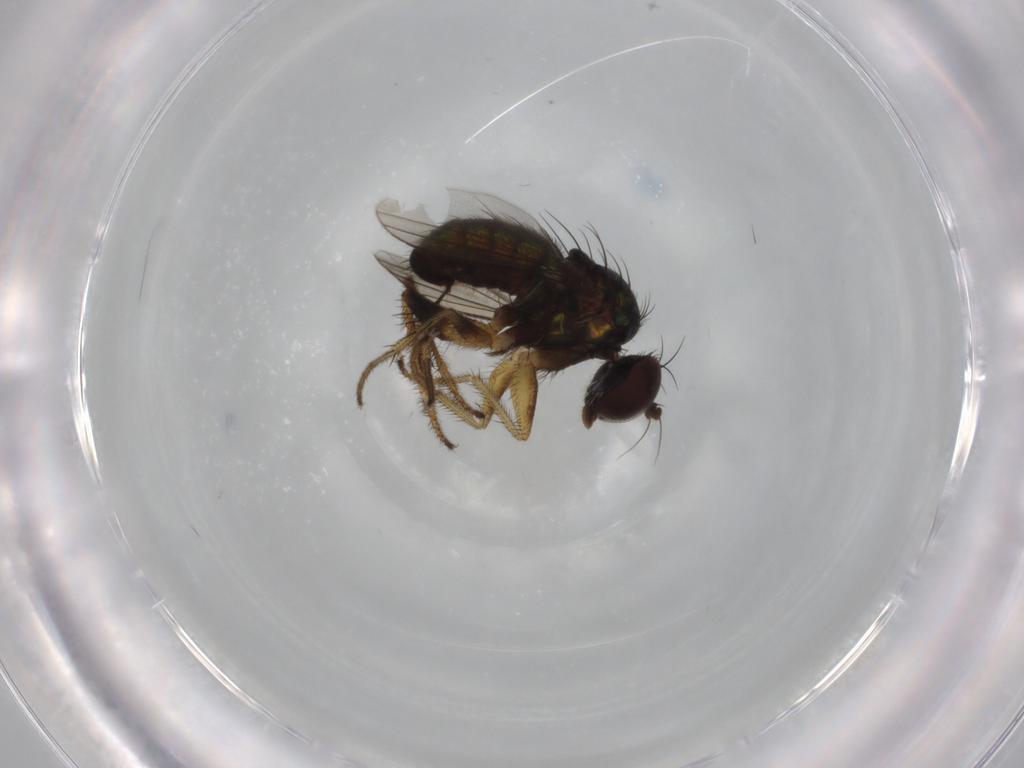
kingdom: Animalia
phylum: Arthropoda
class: Insecta
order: Diptera
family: Dolichopodidae
